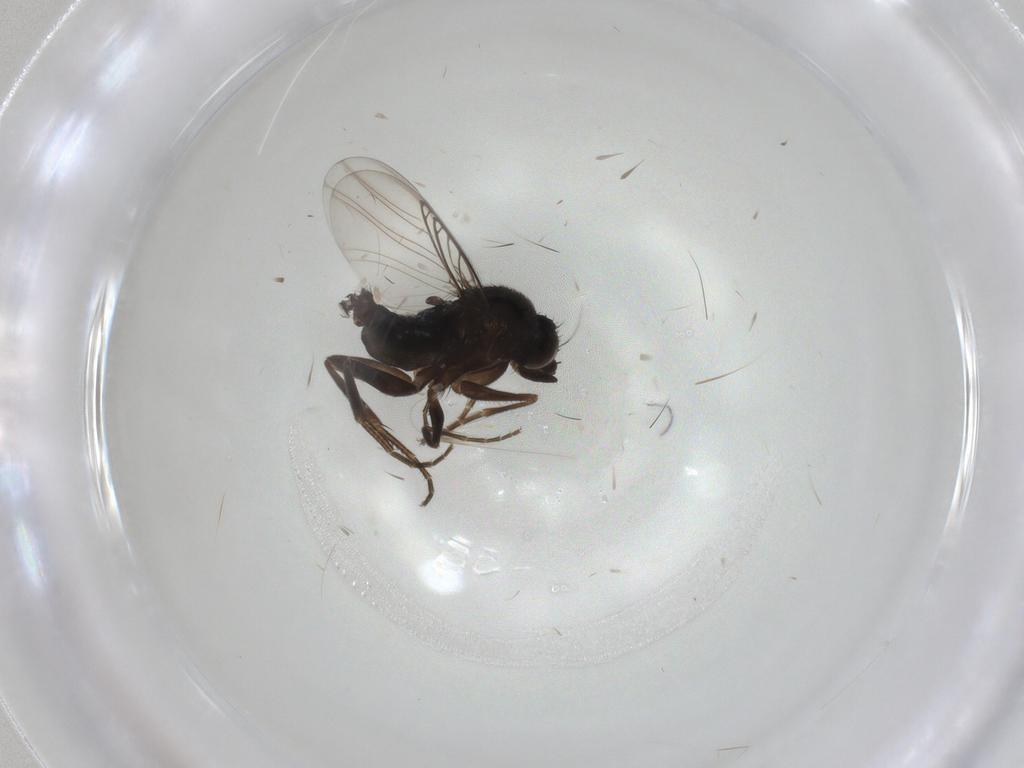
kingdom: Animalia
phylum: Arthropoda
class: Insecta
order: Diptera
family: Phoridae
